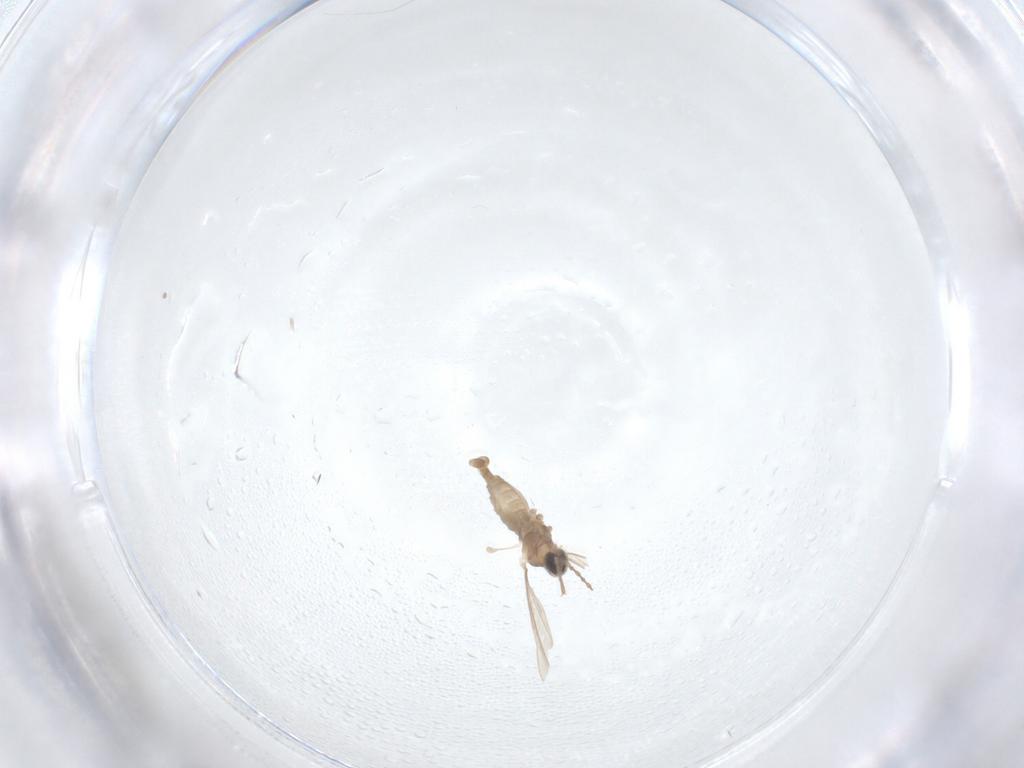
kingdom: Animalia
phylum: Arthropoda
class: Insecta
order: Diptera
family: Cecidomyiidae
